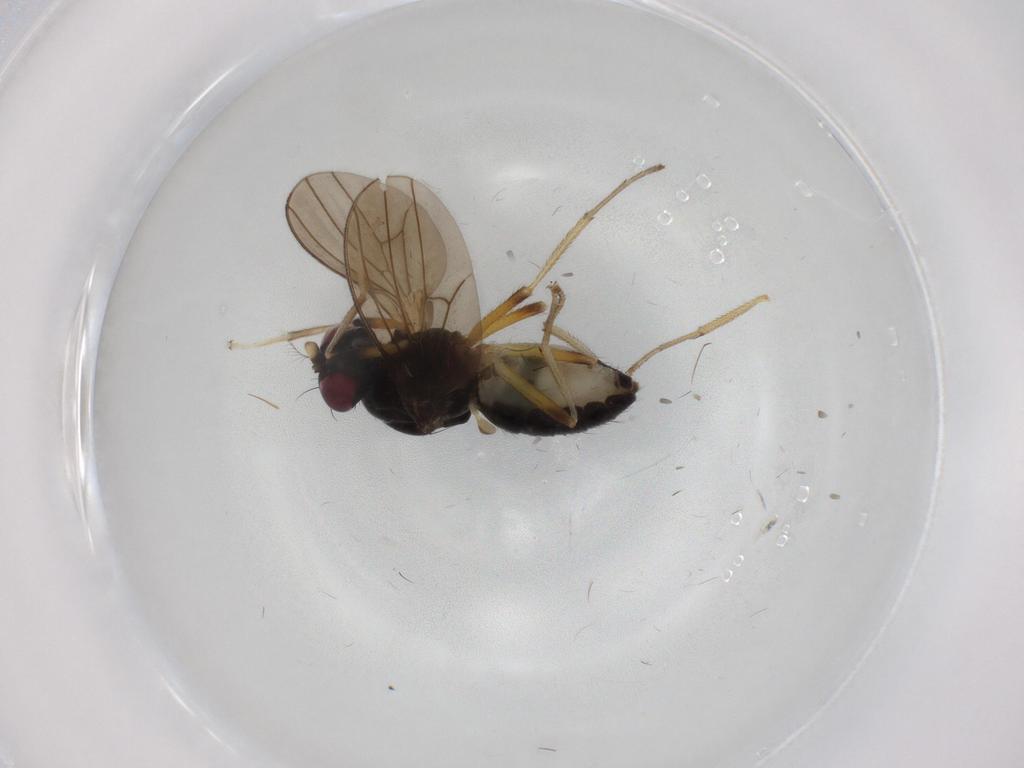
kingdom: Animalia
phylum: Arthropoda
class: Insecta
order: Diptera
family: Lauxaniidae
